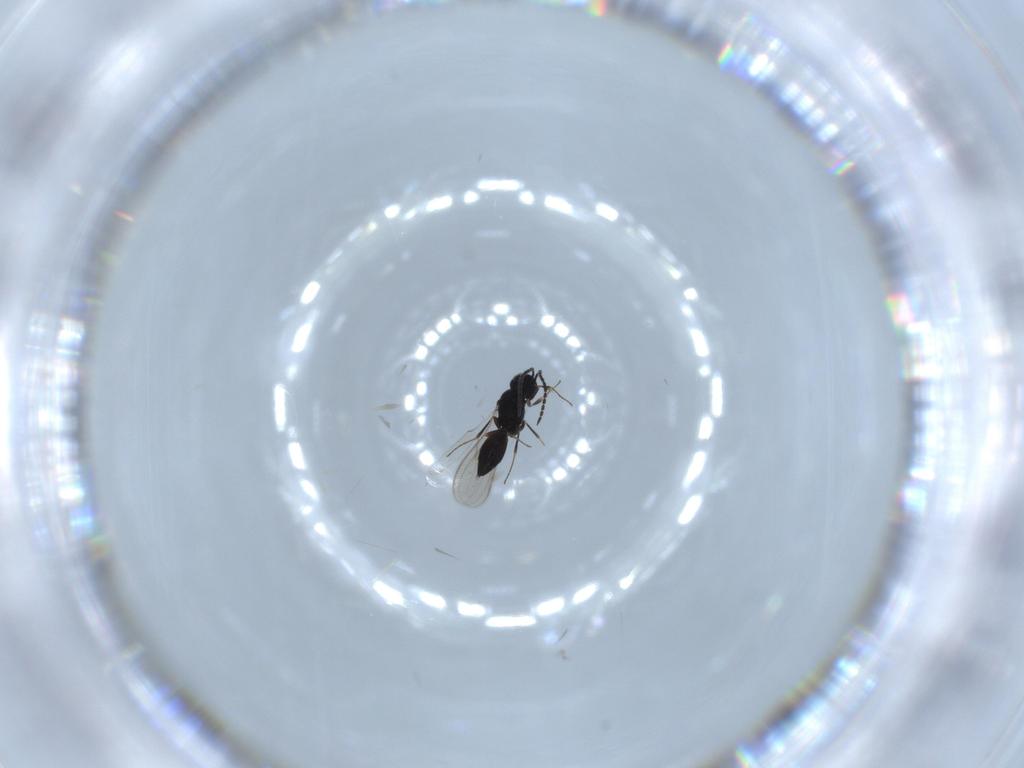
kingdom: Animalia
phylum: Arthropoda
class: Insecta
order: Hymenoptera
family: Scelionidae
